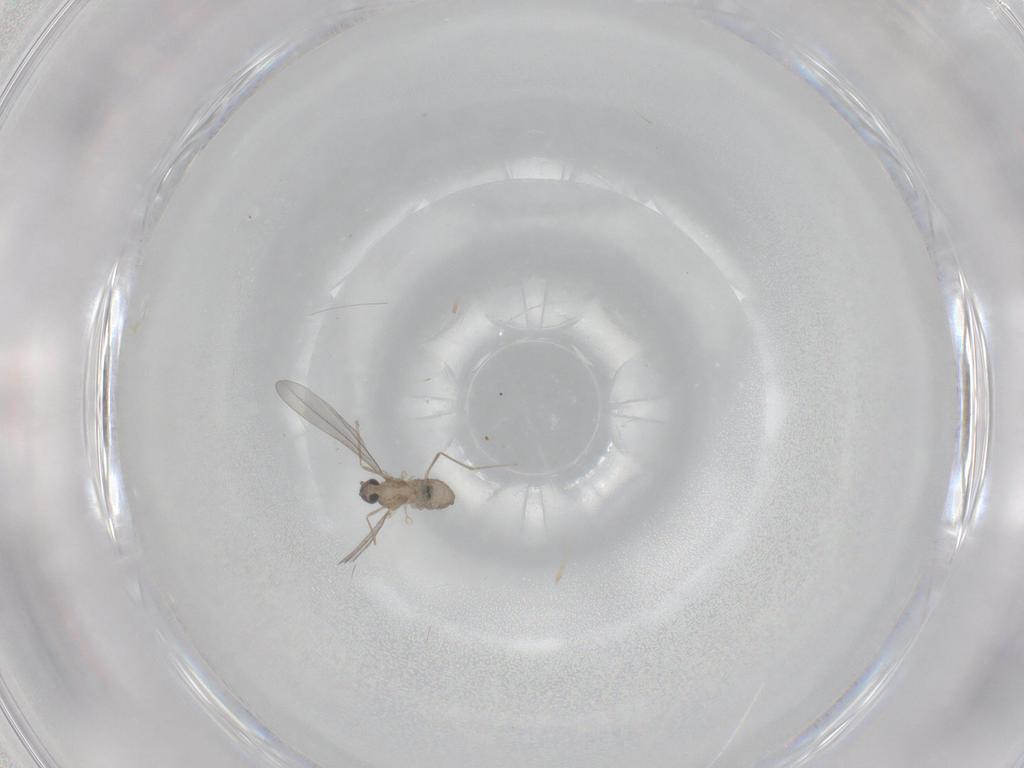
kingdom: Animalia
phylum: Arthropoda
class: Insecta
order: Diptera
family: Cecidomyiidae
